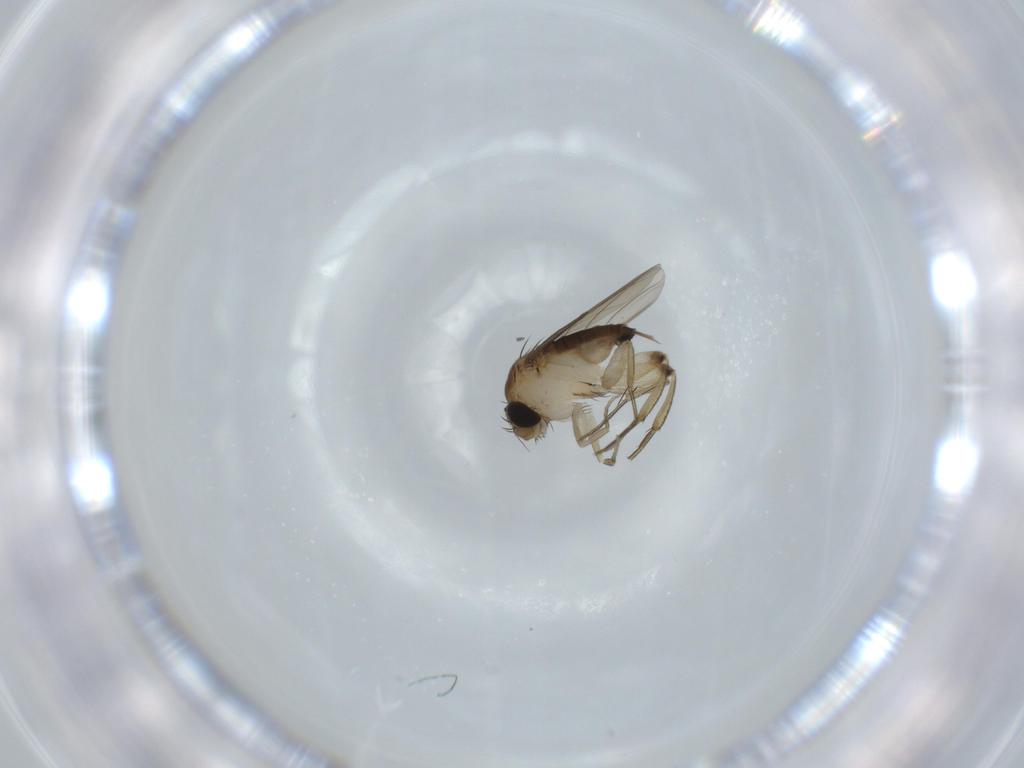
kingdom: Animalia
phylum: Arthropoda
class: Insecta
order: Diptera
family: Phoridae
